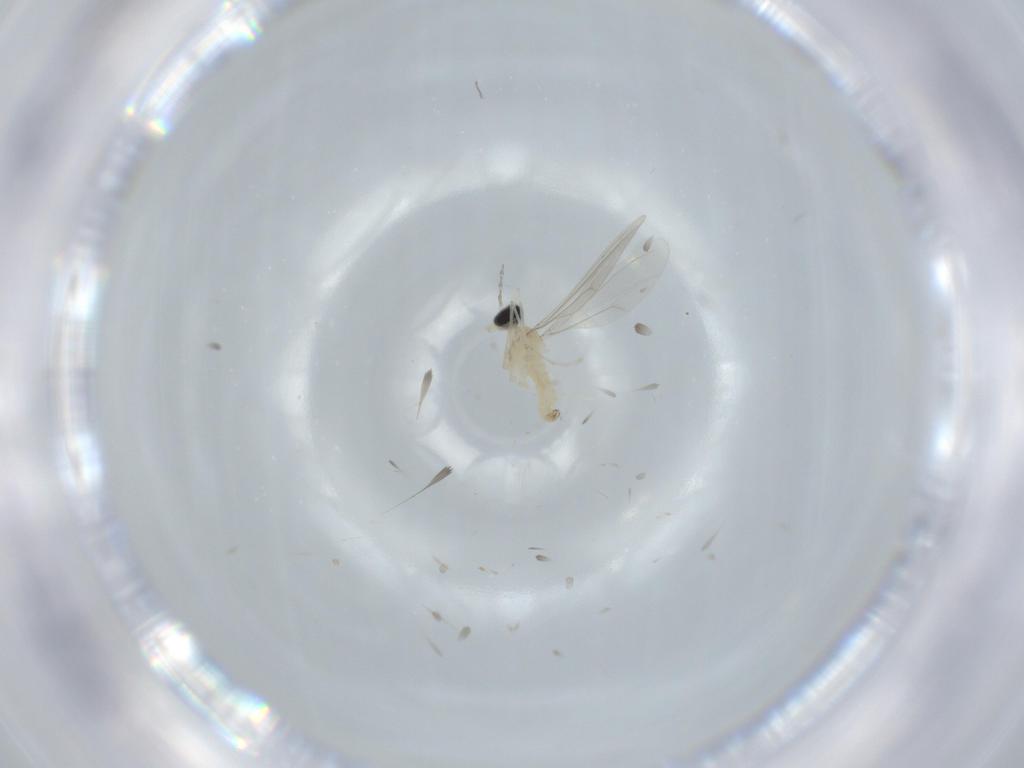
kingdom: Animalia
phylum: Arthropoda
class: Insecta
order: Diptera
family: Cecidomyiidae
